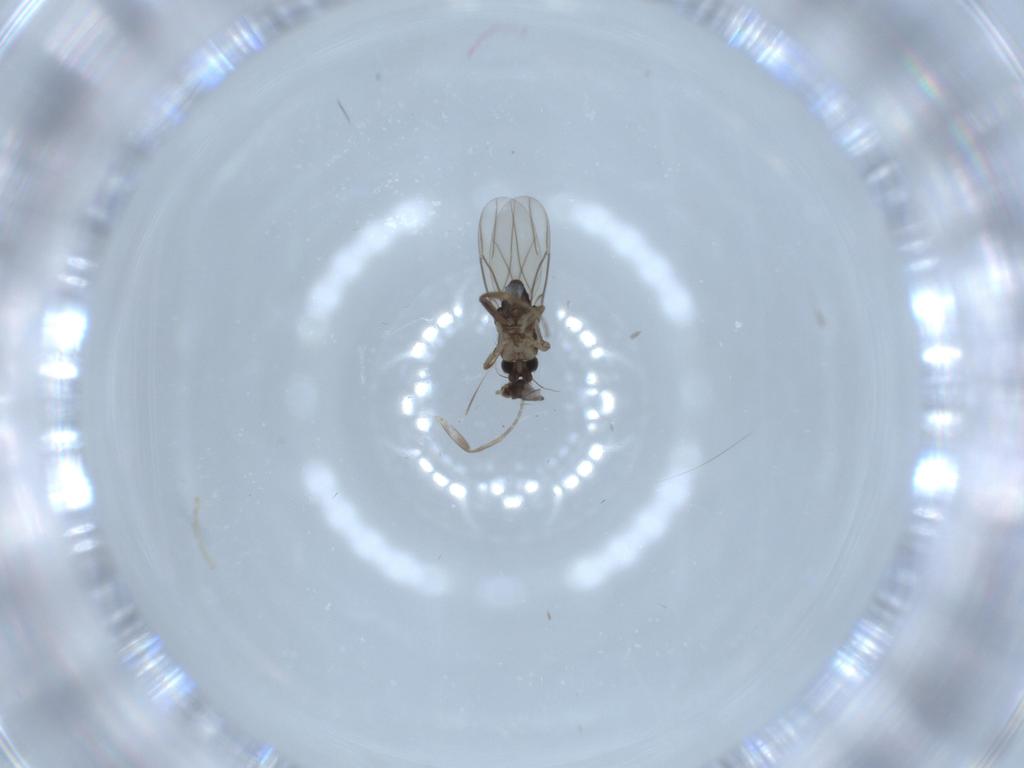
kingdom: Animalia
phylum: Arthropoda
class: Insecta
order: Diptera
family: Phoridae
